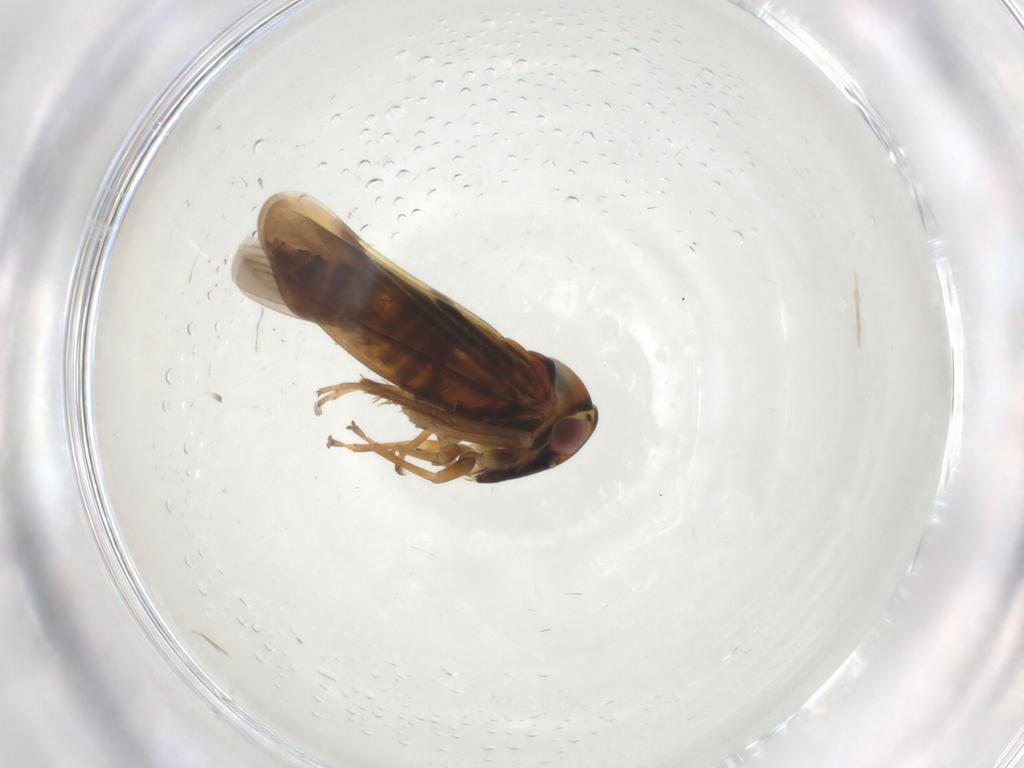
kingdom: Animalia
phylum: Arthropoda
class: Insecta
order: Hemiptera
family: Cicadellidae
